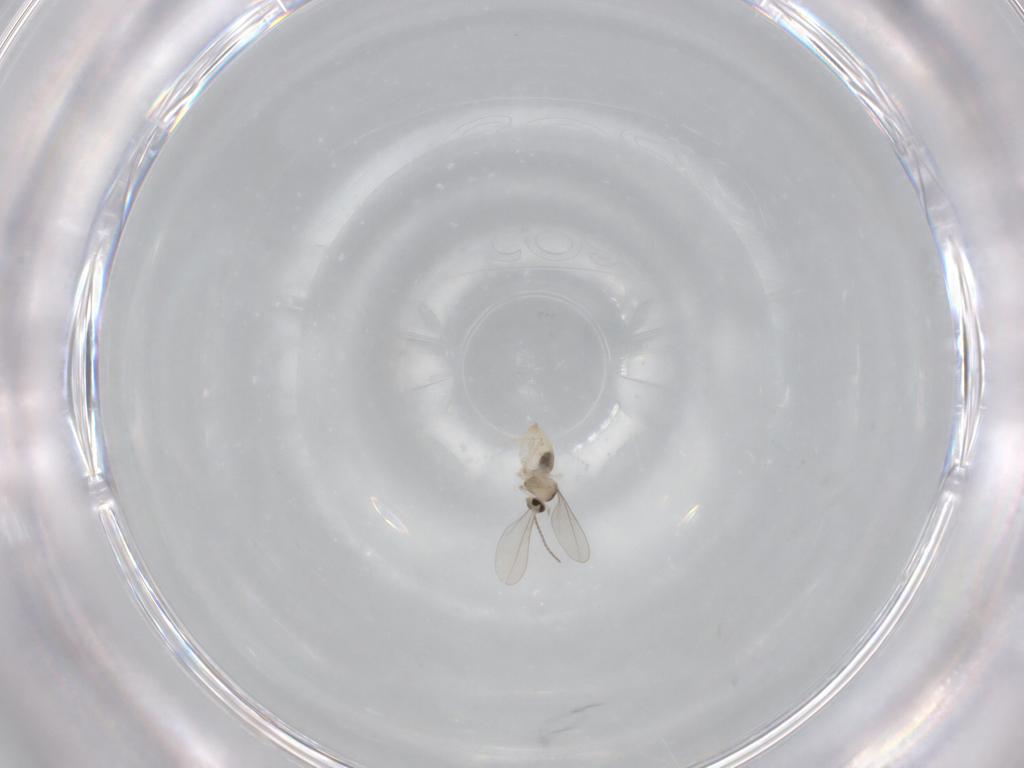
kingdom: Animalia
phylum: Arthropoda
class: Insecta
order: Diptera
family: Cecidomyiidae
